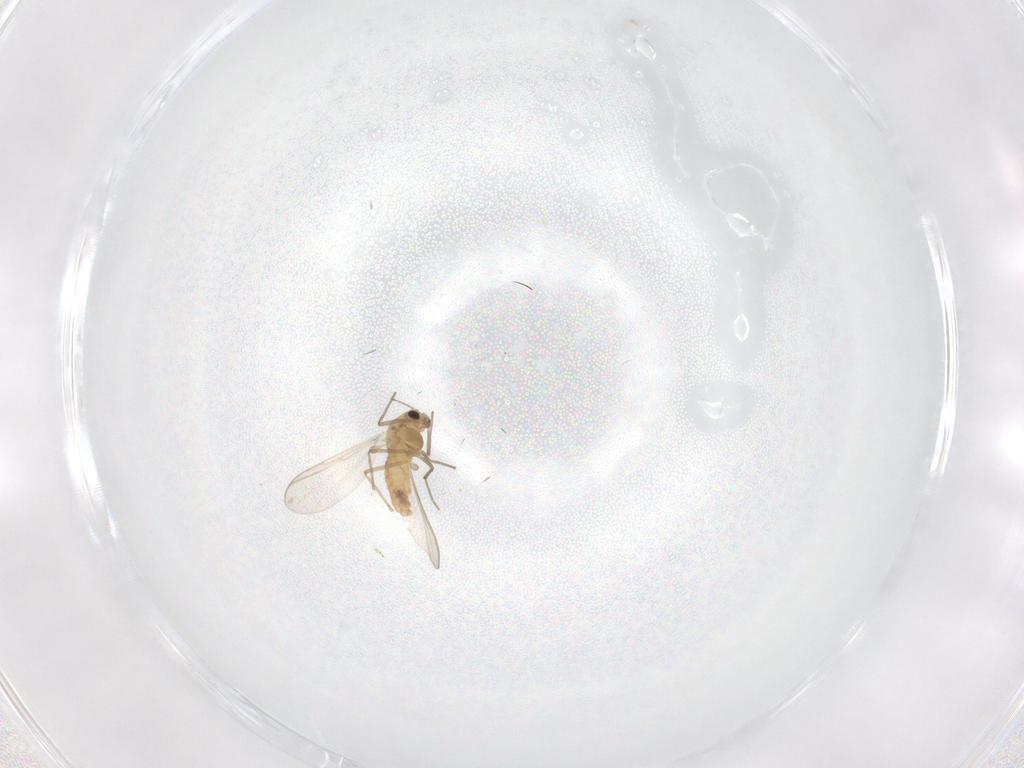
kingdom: Animalia
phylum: Arthropoda
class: Insecta
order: Diptera
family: Chironomidae
